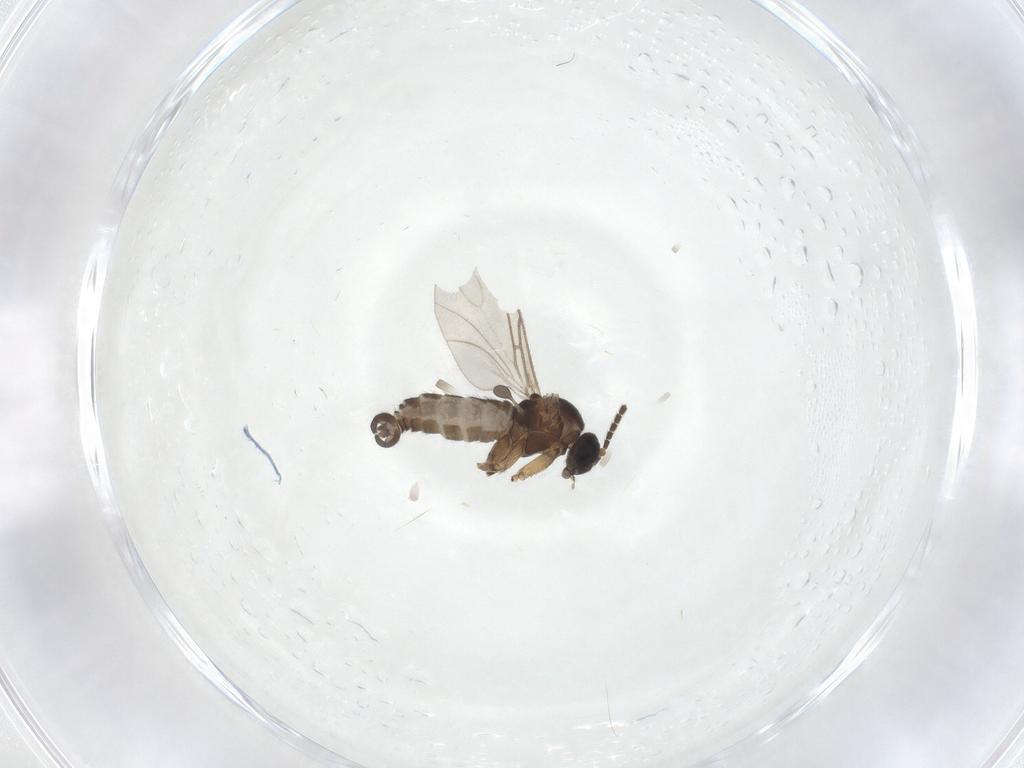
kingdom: Animalia
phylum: Arthropoda
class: Insecta
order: Diptera
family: Sciaridae
